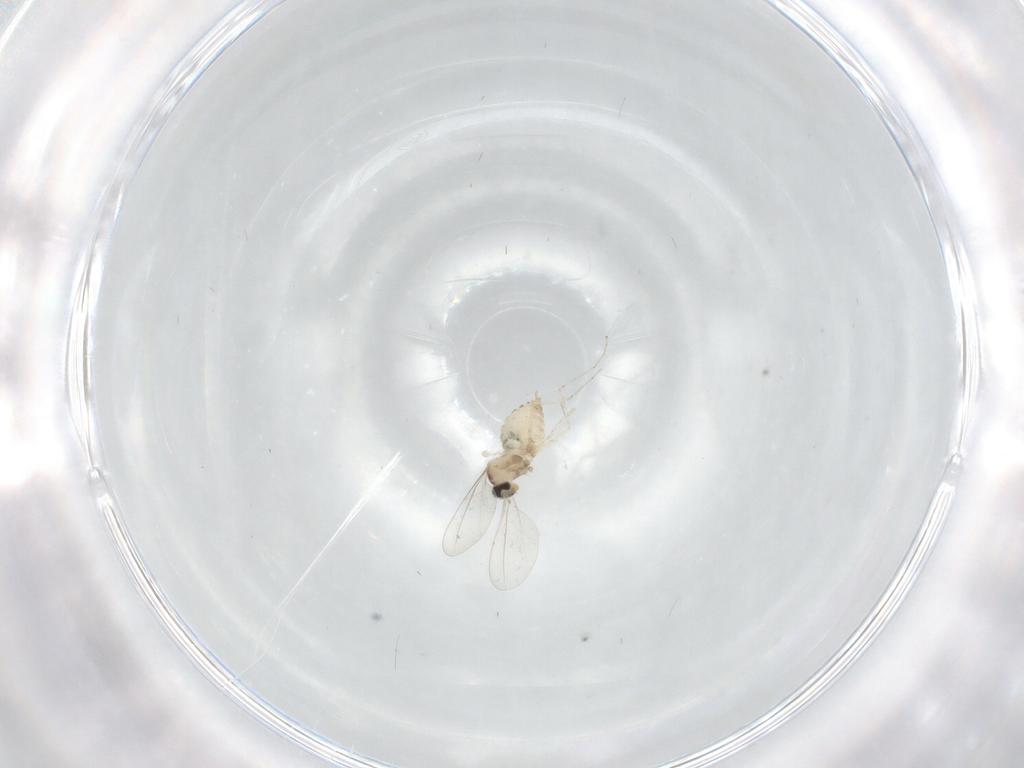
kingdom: Animalia
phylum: Arthropoda
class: Insecta
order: Diptera
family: Cecidomyiidae
